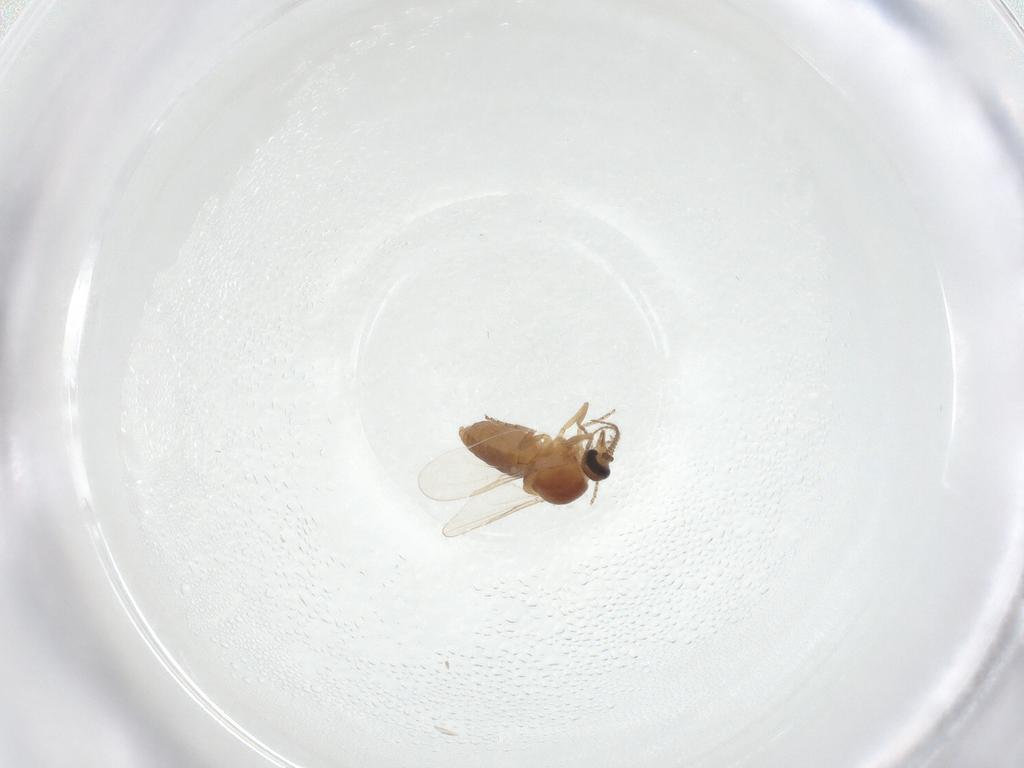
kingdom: Animalia
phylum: Arthropoda
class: Insecta
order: Diptera
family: Ceratopogonidae
